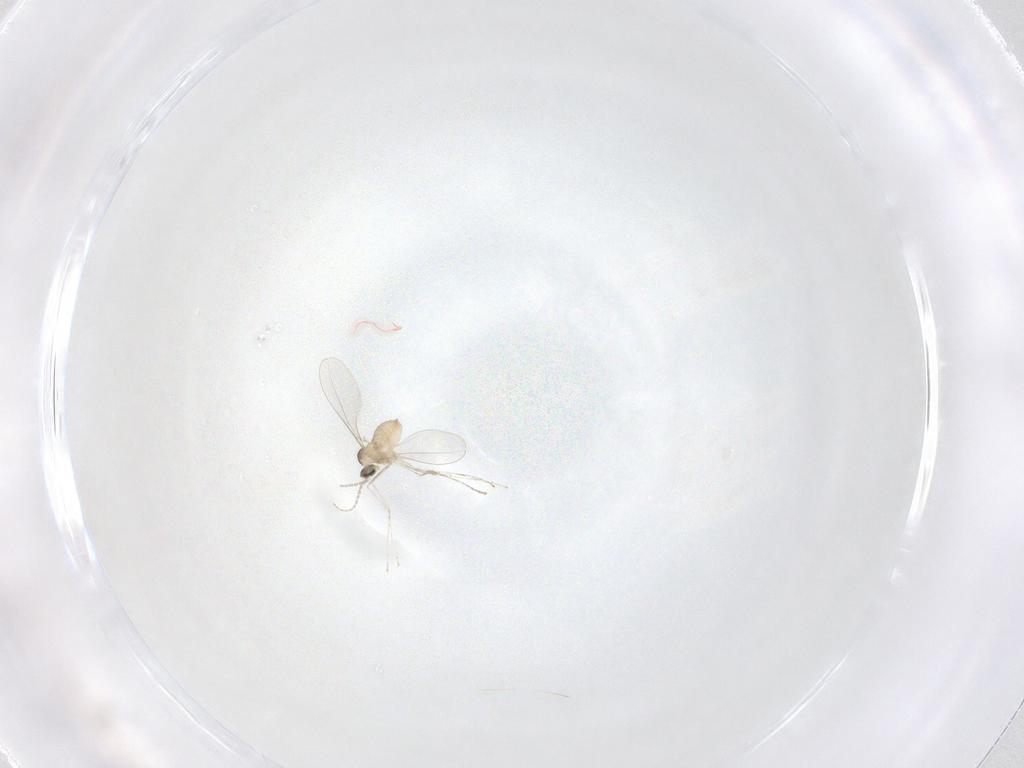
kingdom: Animalia
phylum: Arthropoda
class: Insecta
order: Diptera
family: Cecidomyiidae
